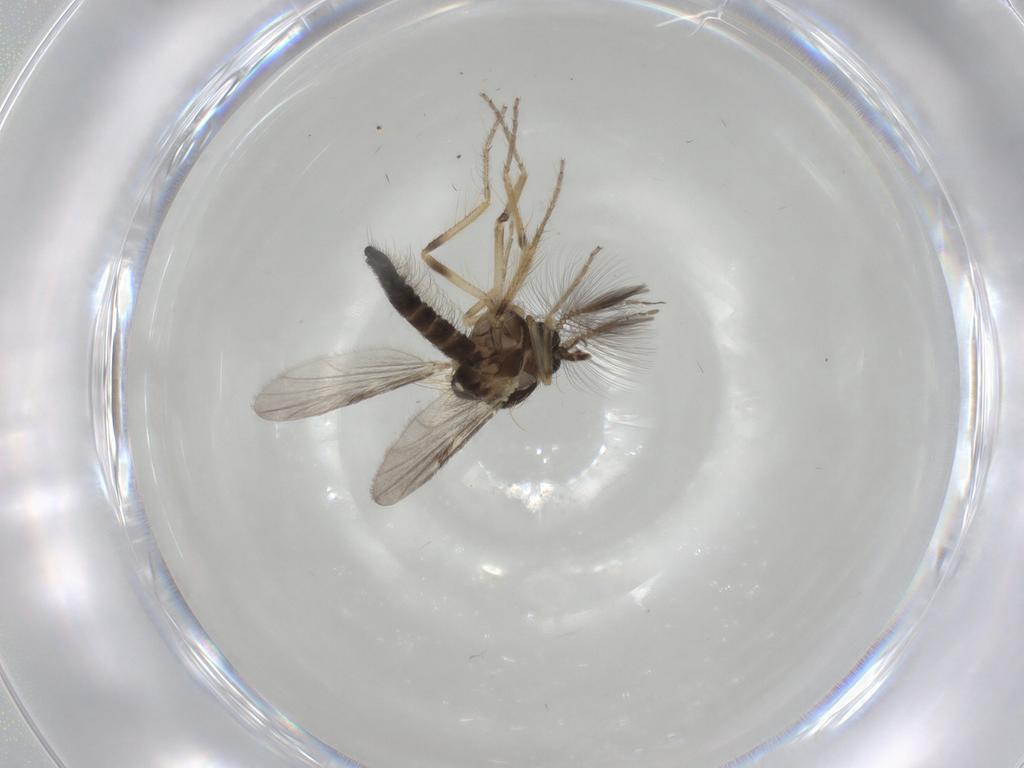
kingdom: Animalia
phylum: Arthropoda
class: Insecta
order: Diptera
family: Ceratopogonidae
